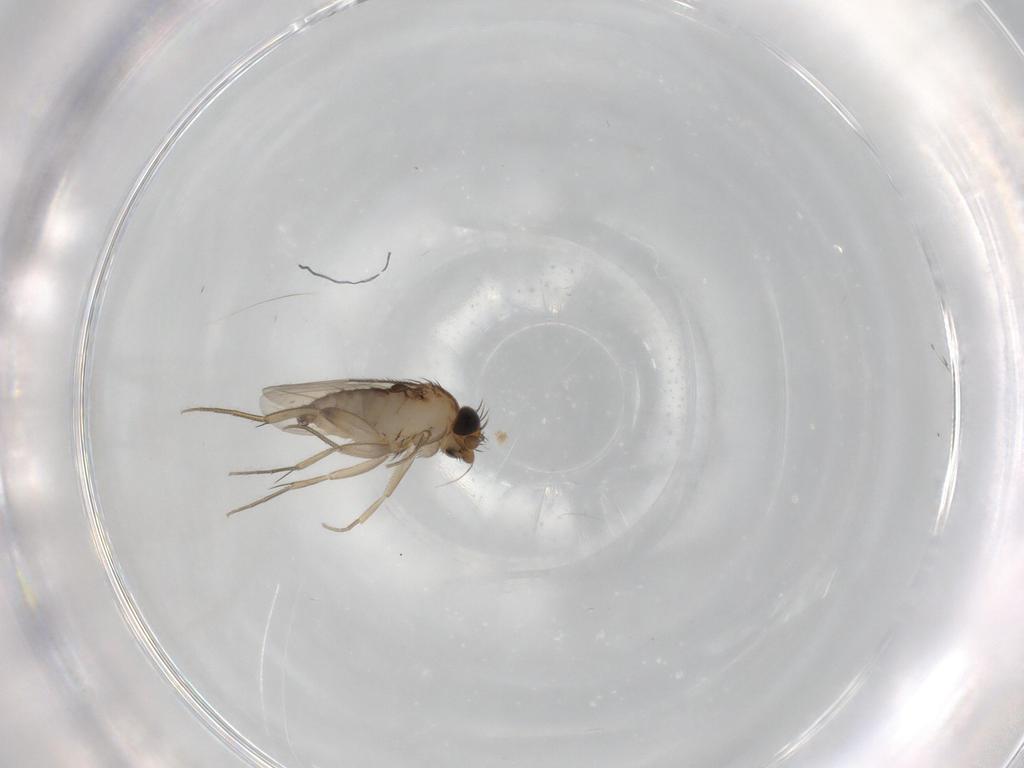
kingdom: Animalia
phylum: Arthropoda
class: Insecta
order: Diptera
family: Phoridae
